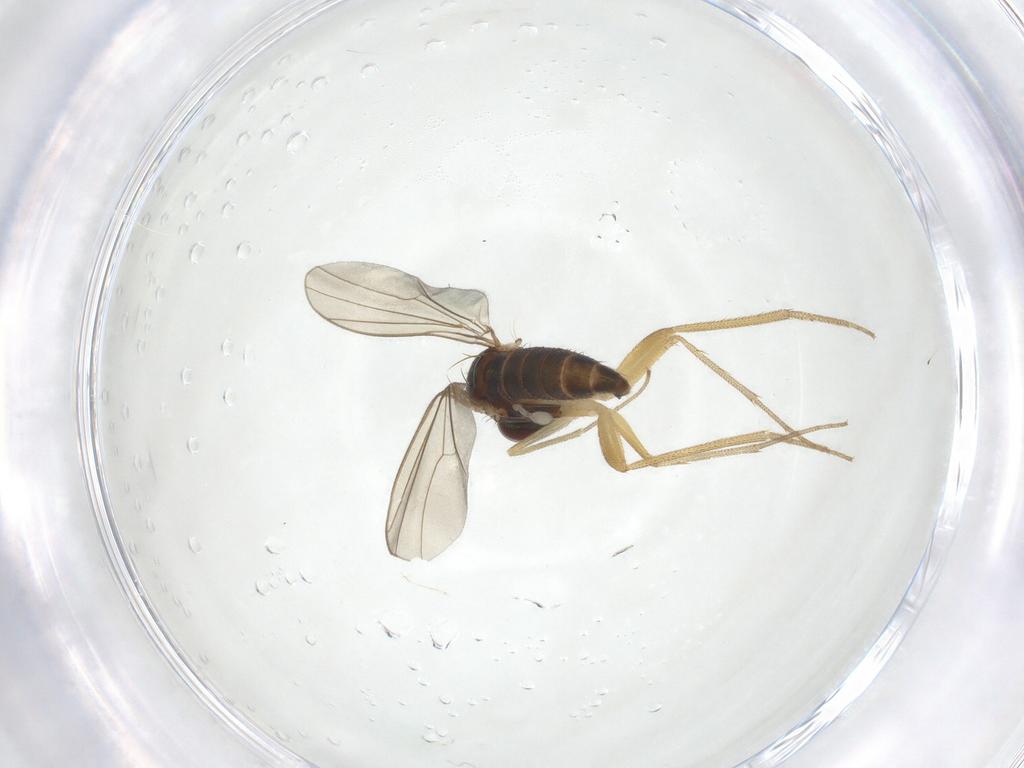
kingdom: Animalia
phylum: Arthropoda
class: Insecta
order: Diptera
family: Dolichopodidae
